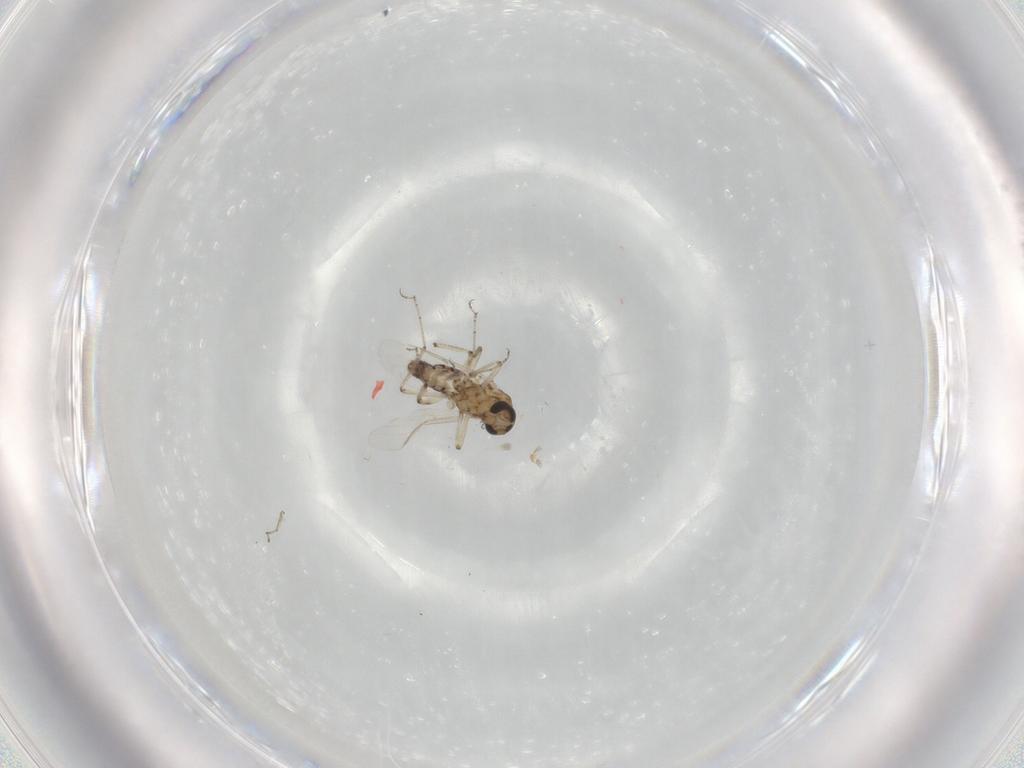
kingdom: Animalia
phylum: Arthropoda
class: Insecta
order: Diptera
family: Ceratopogonidae
